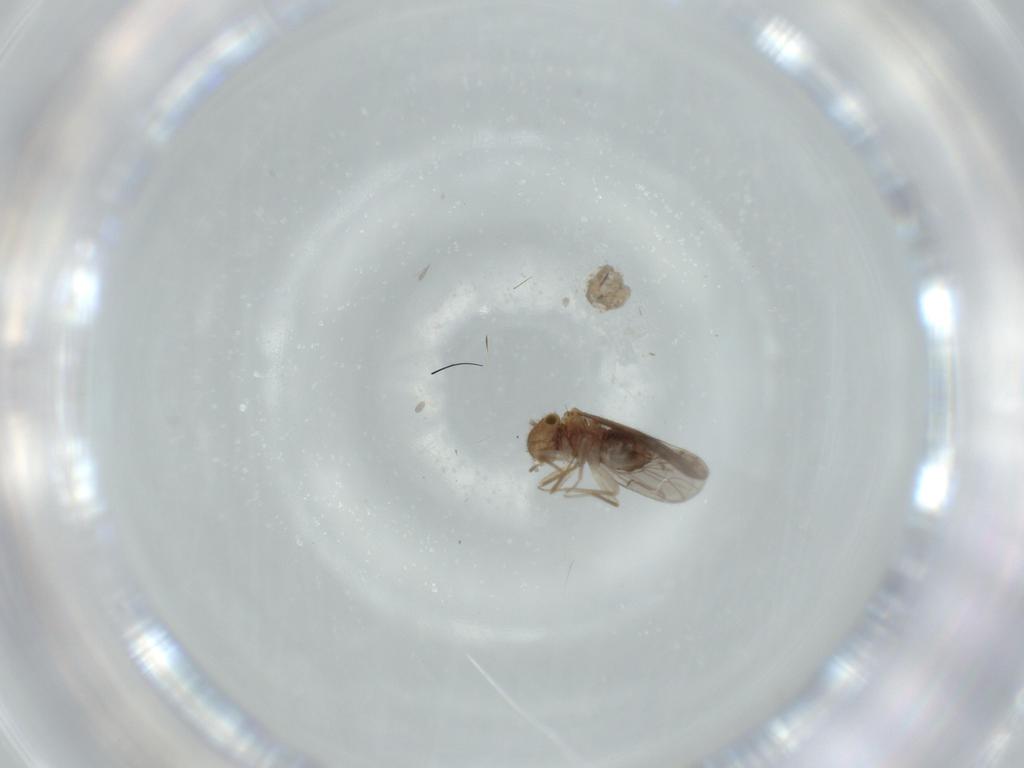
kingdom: Animalia
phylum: Arthropoda
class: Insecta
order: Psocodea
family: Ectopsocidae
